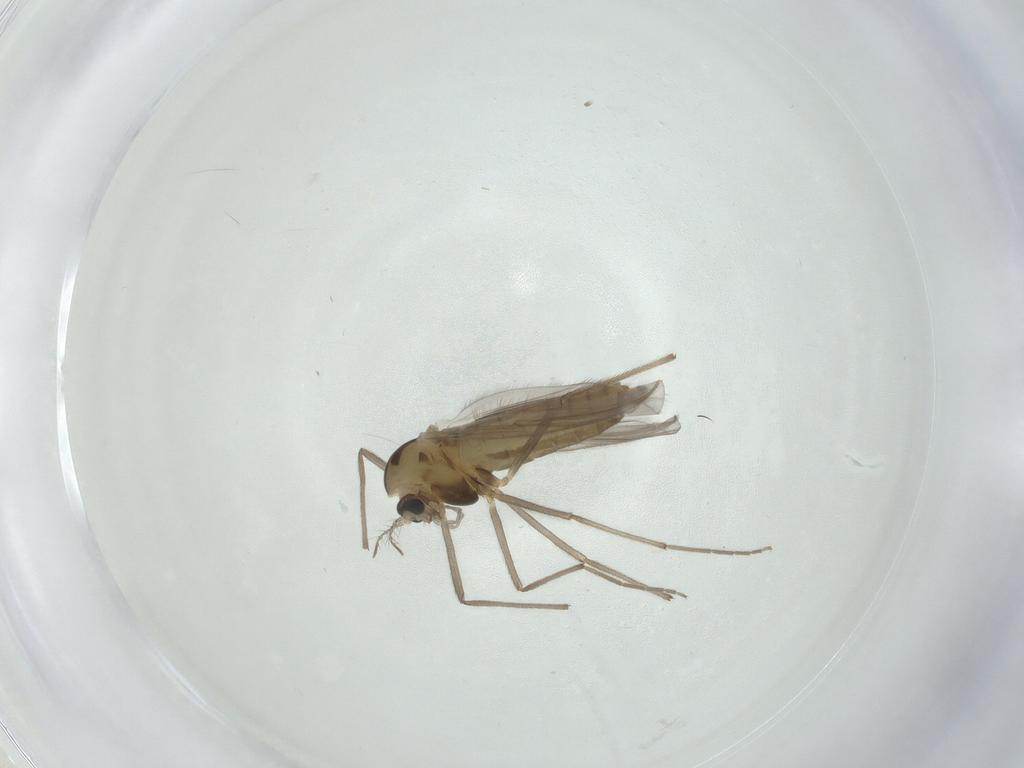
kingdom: Animalia
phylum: Arthropoda
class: Insecta
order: Diptera
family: Chironomidae
